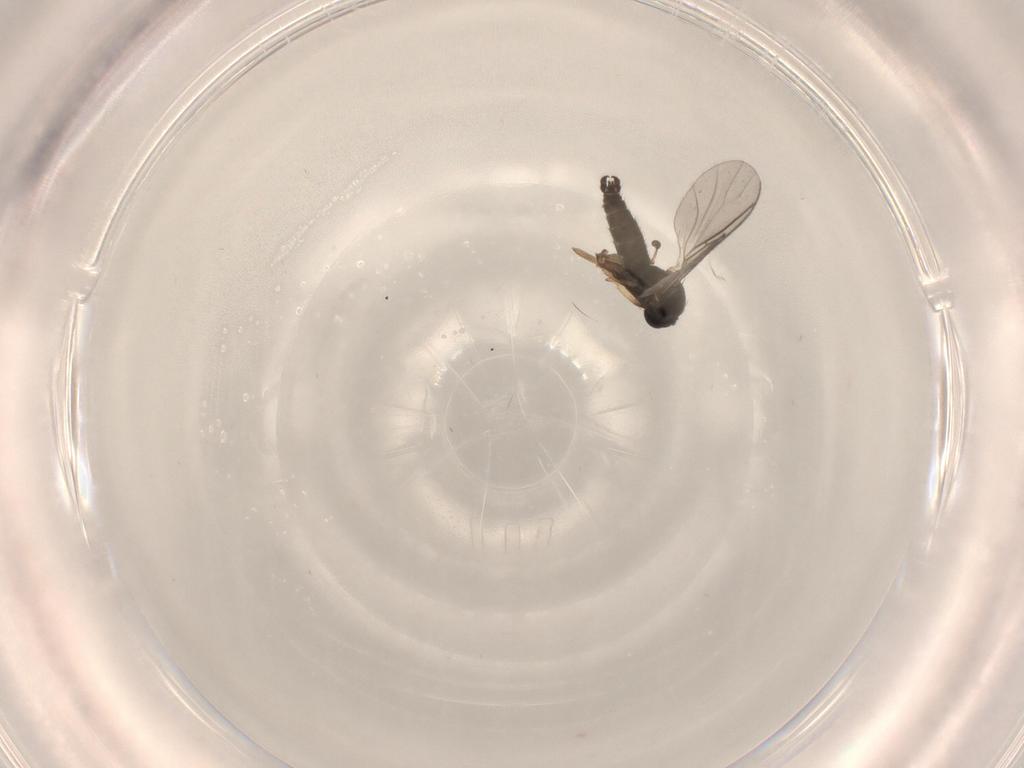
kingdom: Animalia
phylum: Arthropoda
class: Insecta
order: Diptera
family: Sciaridae
